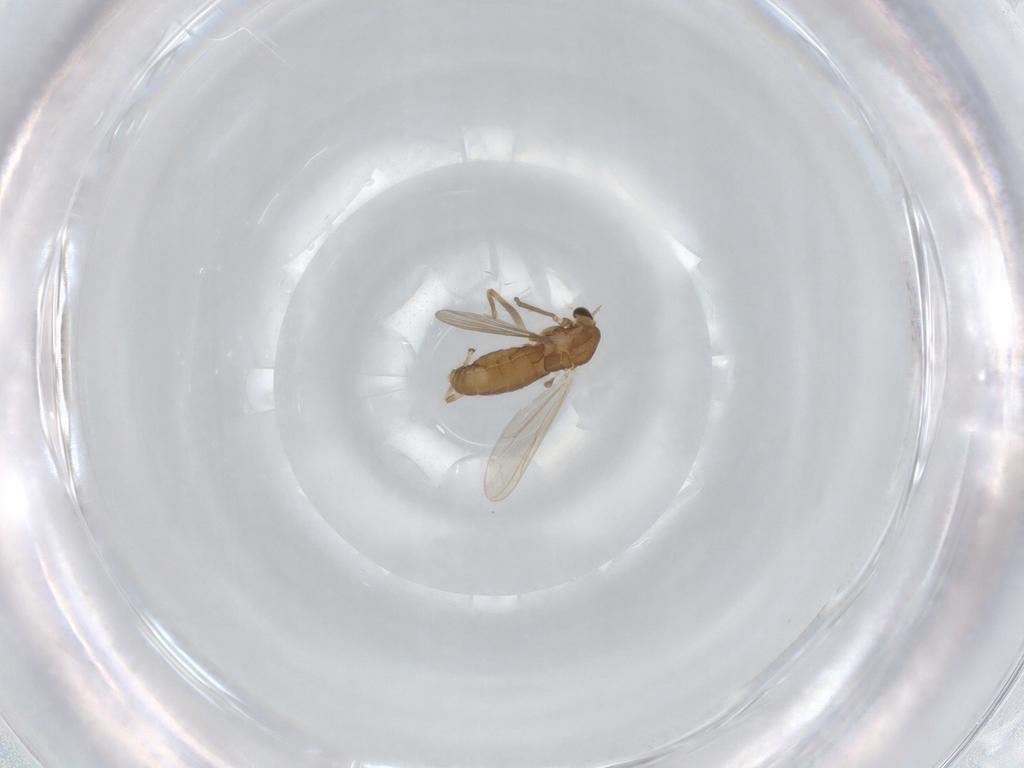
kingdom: Animalia
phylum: Arthropoda
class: Insecta
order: Diptera
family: Chironomidae
